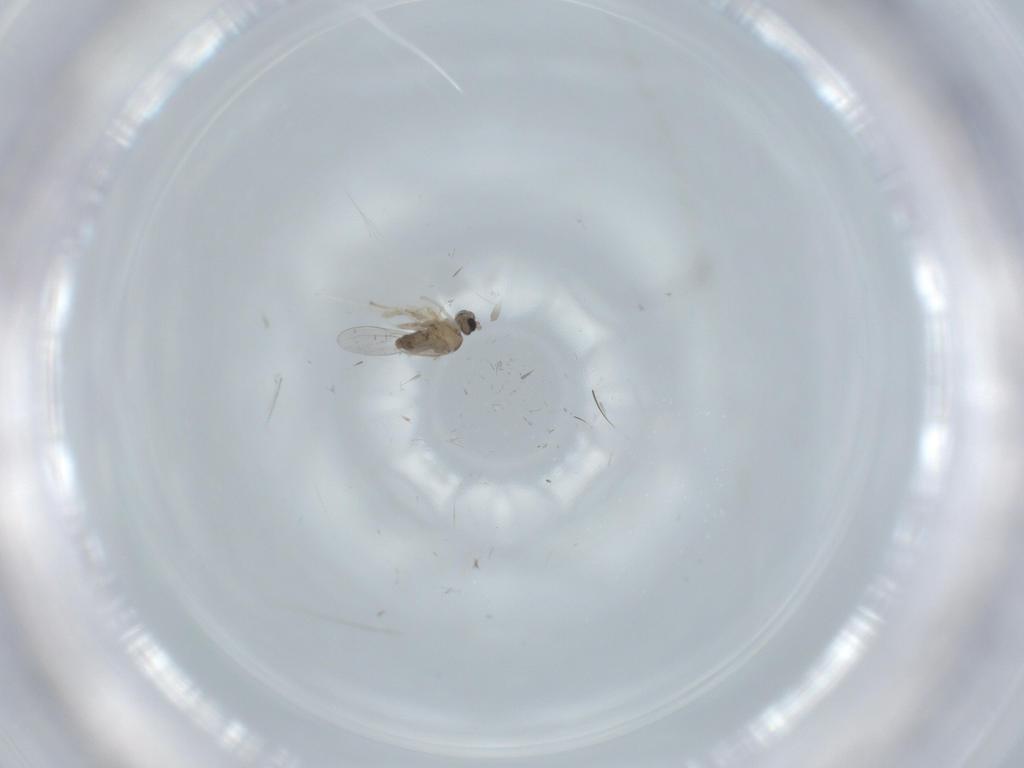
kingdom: Animalia
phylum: Arthropoda
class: Insecta
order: Diptera
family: Chironomidae
